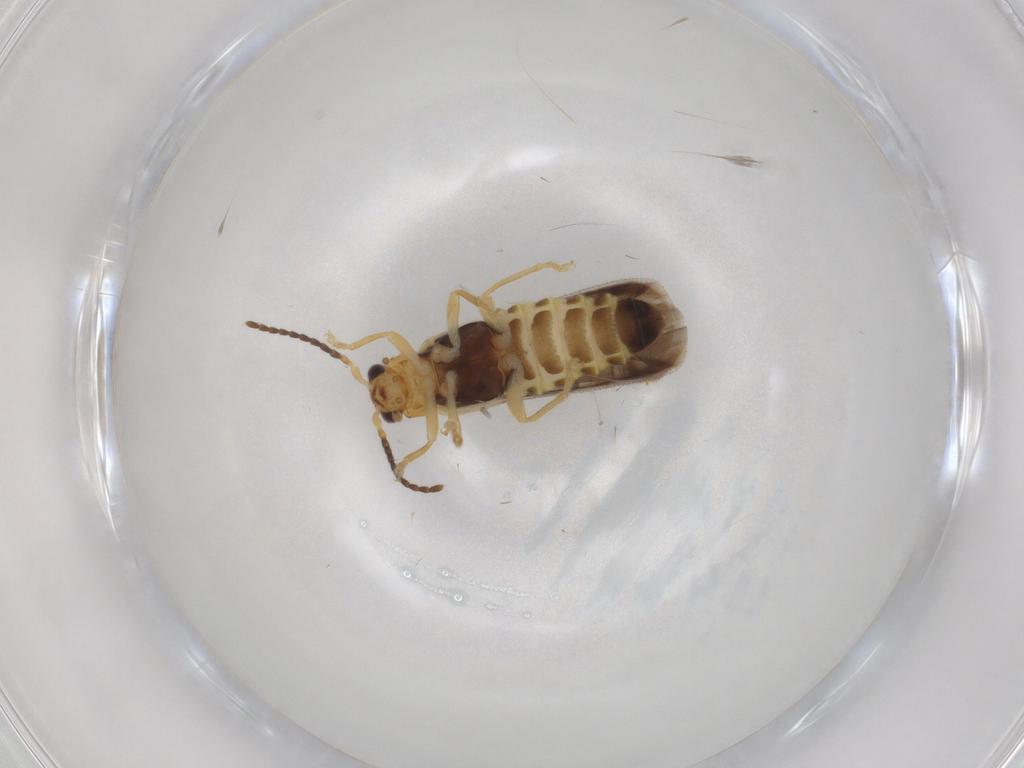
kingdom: Animalia
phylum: Arthropoda
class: Insecta
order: Coleoptera
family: Cantharidae
